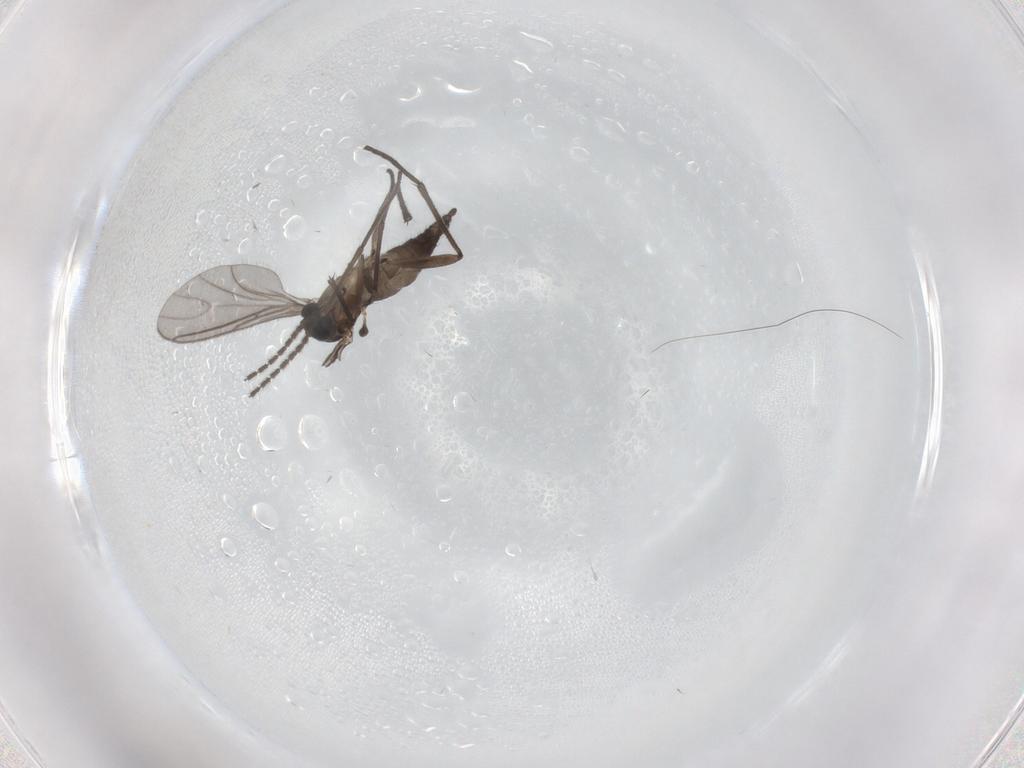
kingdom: Animalia
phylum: Arthropoda
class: Insecta
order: Diptera
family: Sciaridae
